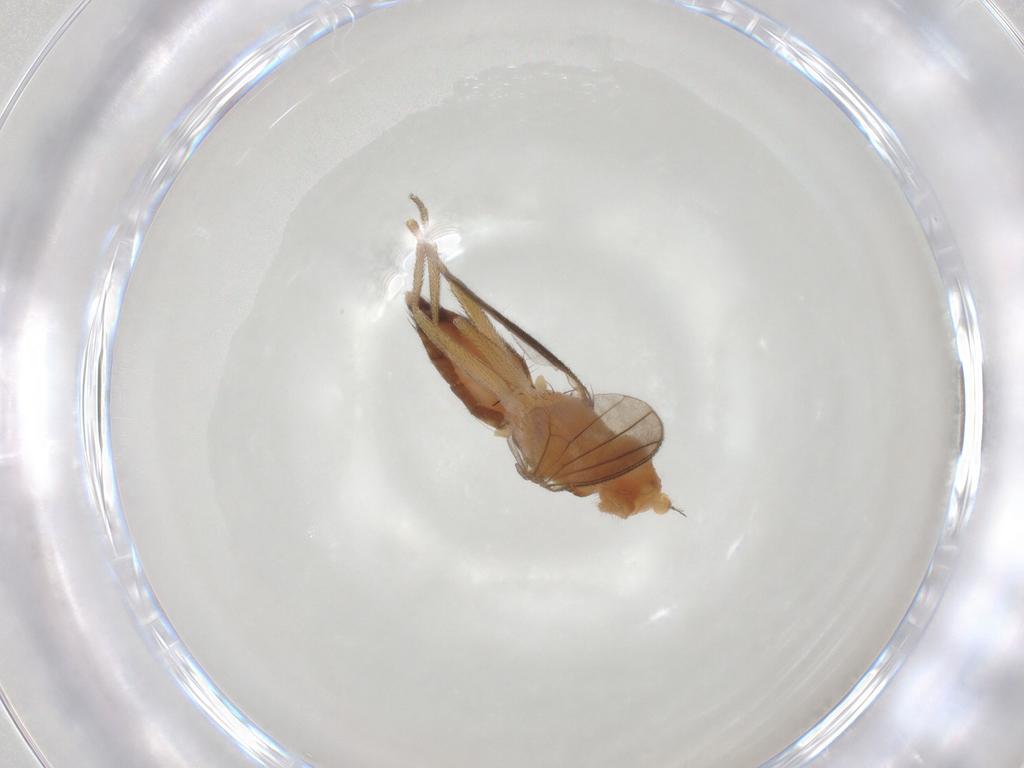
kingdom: Animalia
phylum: Arthropoda
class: Insecta
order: Diptera
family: Clusiidae
